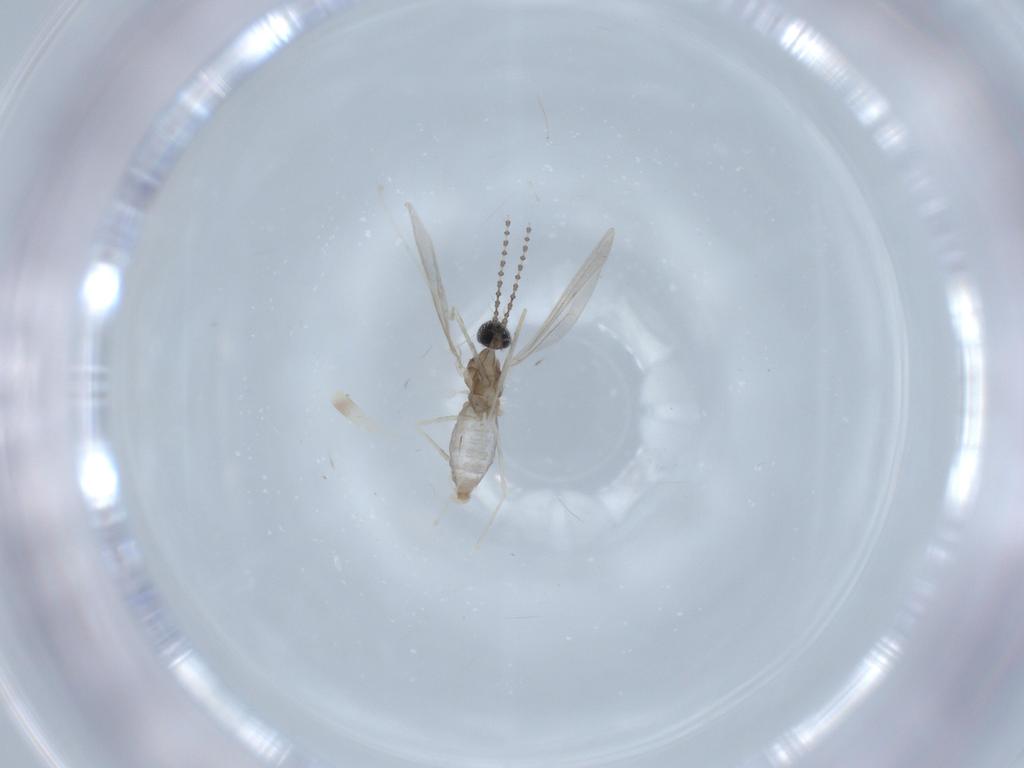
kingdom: Animalia
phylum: Arthropoda
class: Insecta
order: Diptera
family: Cecidomyiidae
